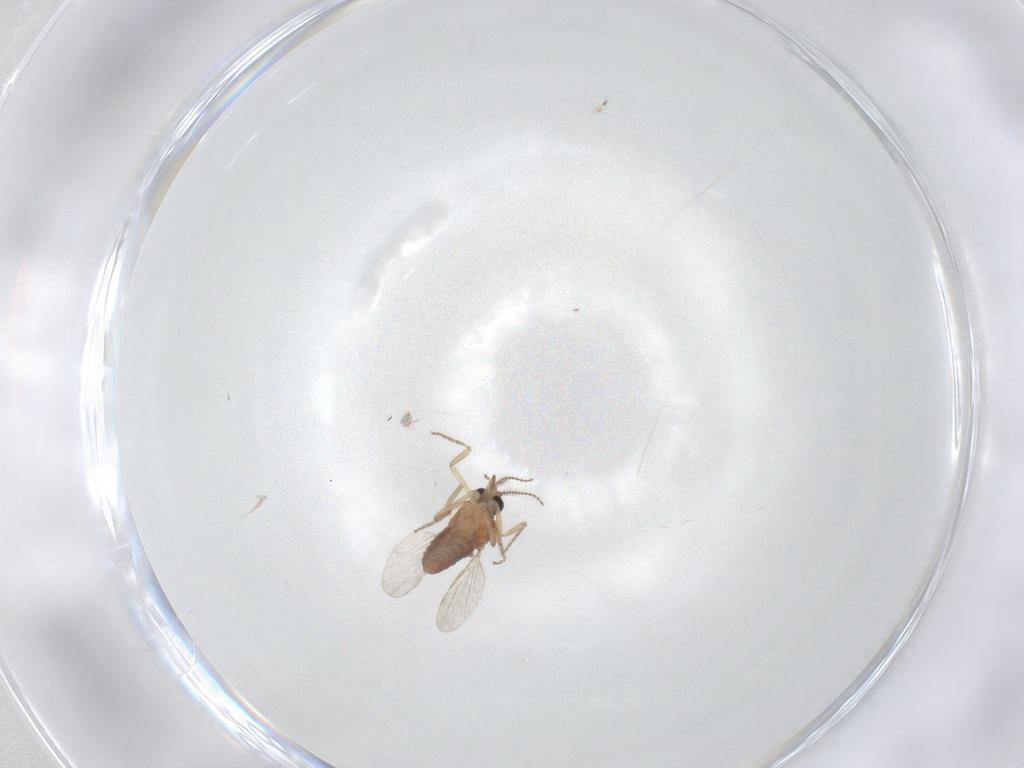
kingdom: Animalia
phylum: Arthropoda
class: Insecta
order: Diptera
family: Ceratopogonidae
